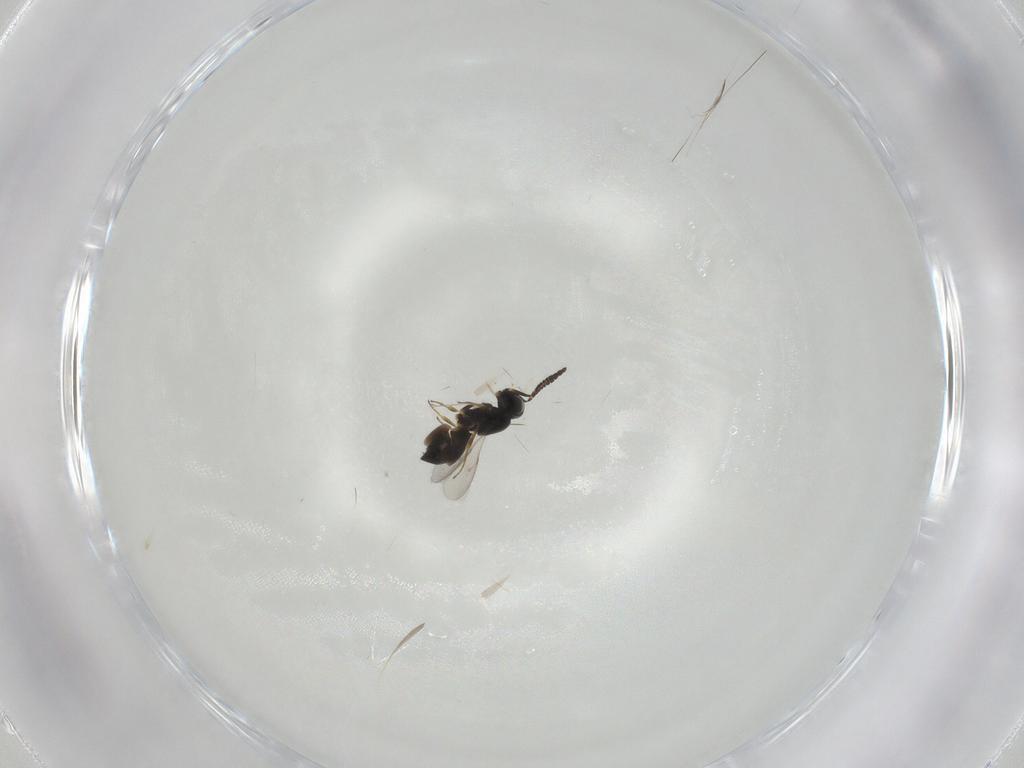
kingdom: Animalia
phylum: Arthropoda
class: Insecta
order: Hymenoptera
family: Scelionidae
